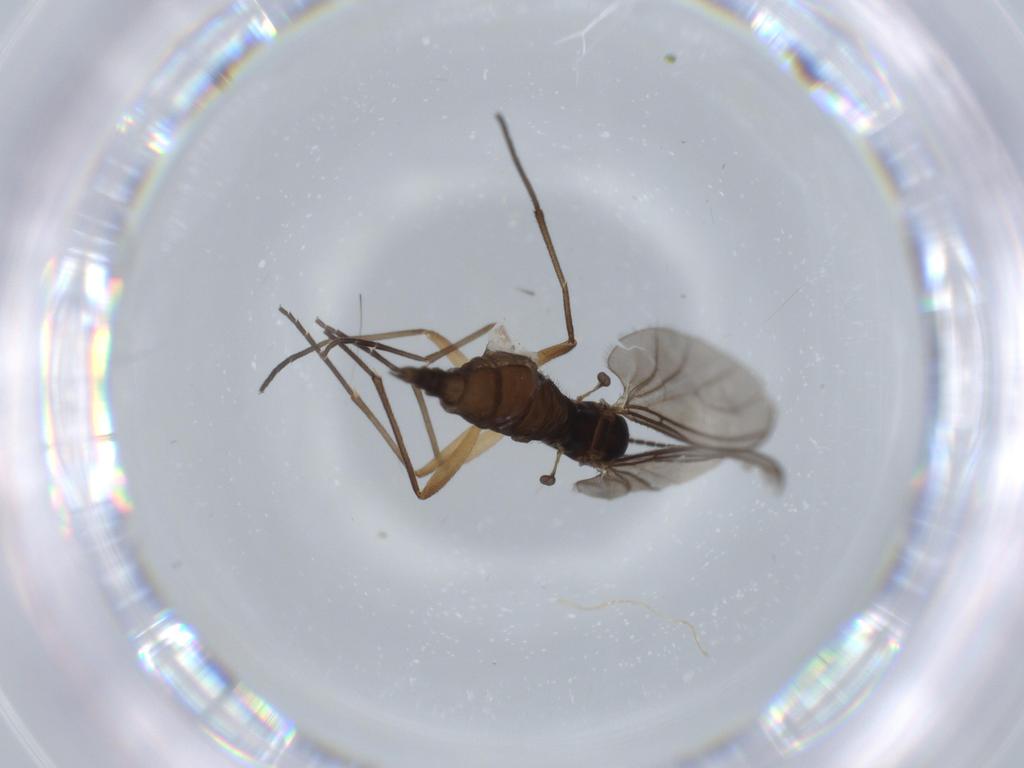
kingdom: Animalia
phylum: Arthropoda
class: Insecta
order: Diptera
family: Sciaridae
